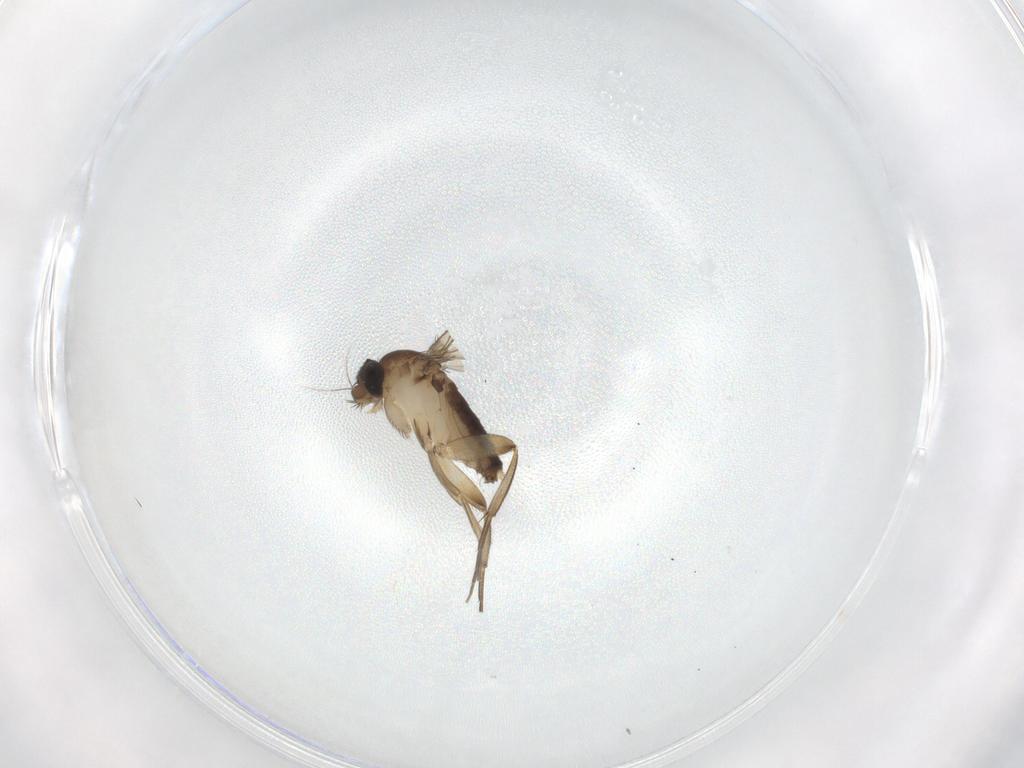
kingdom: Animalia
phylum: Arthropoda
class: Insecta
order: Diptera
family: Phoridae
